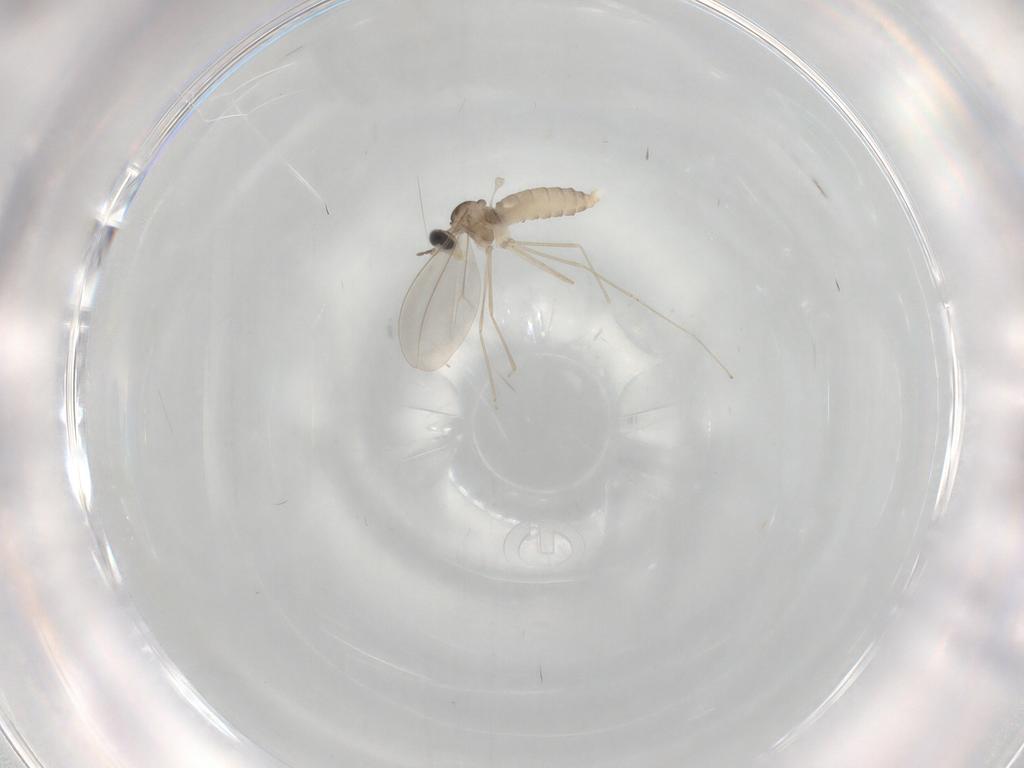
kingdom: Animalia
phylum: Arthropoda
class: Insecta
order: Diptera
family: Cecidomyiidae
